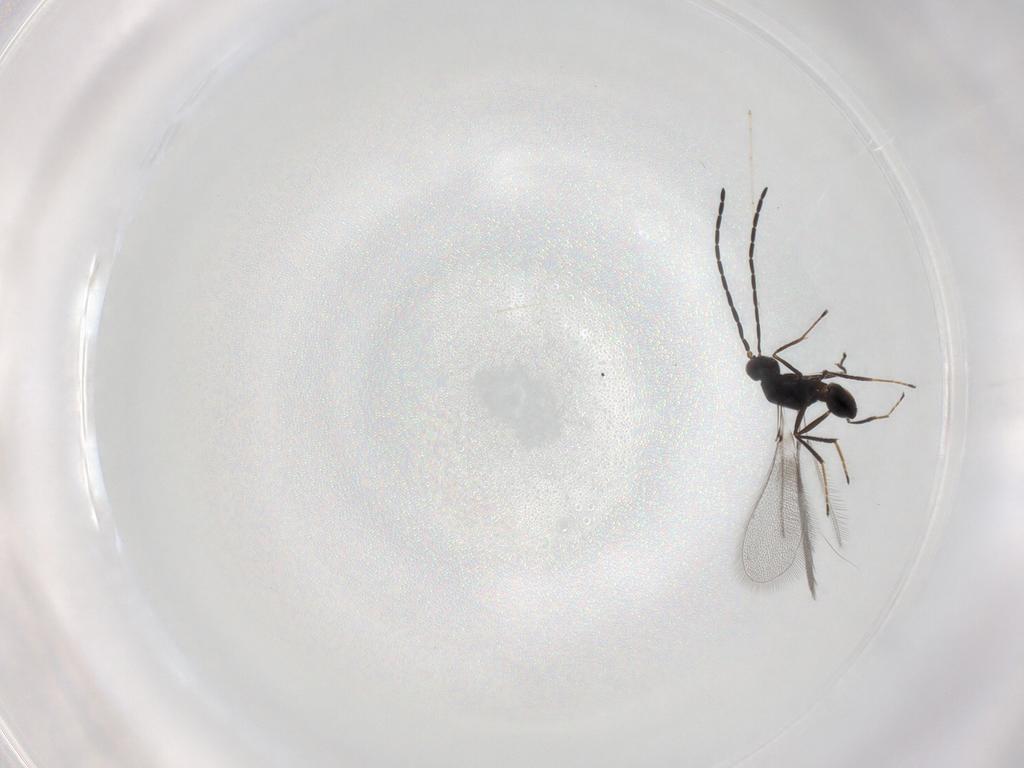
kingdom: Animalia
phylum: Arthropoda
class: Insecta
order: Hymenoptera
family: Mymaridae
